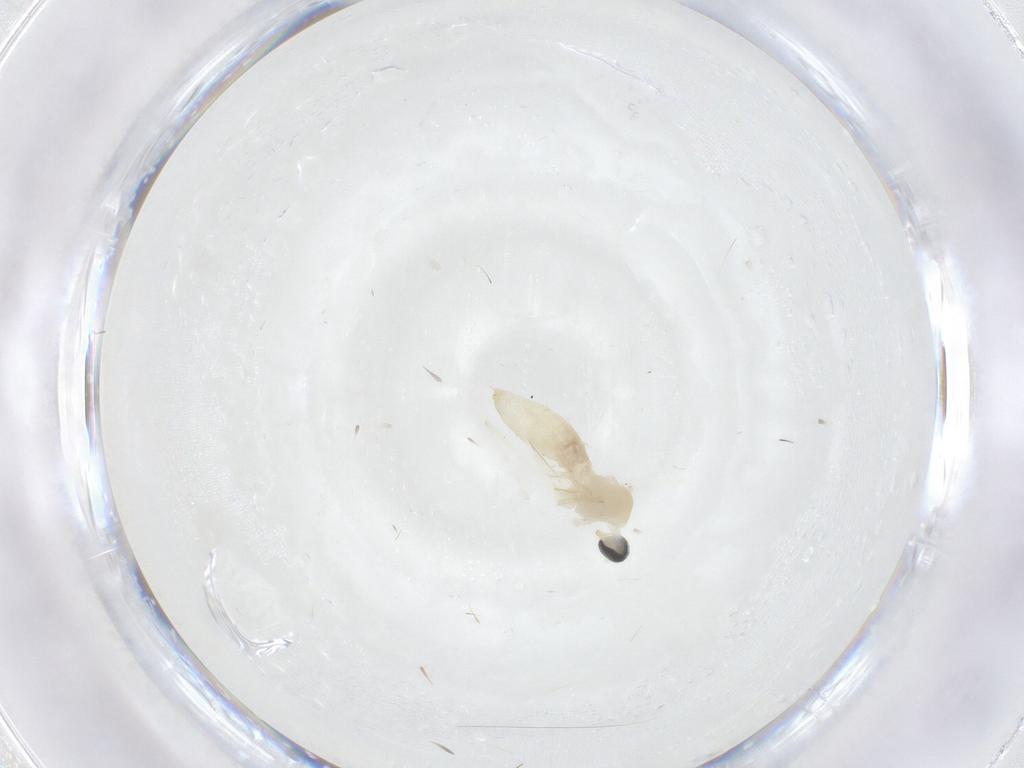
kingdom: Animalia
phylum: Arthropoda
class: Insecta
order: Diptera
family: Cecidomyiidae
